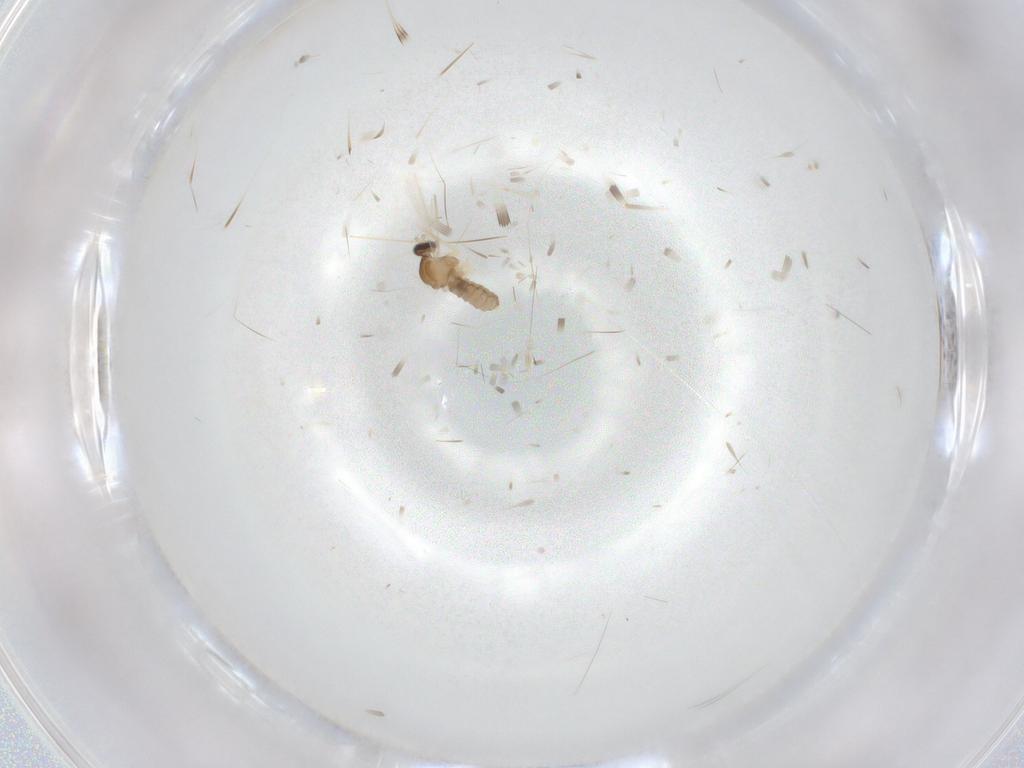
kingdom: Animalia
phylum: Arthropoda
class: Insecta
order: Diptera
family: Cecidomyiidae
